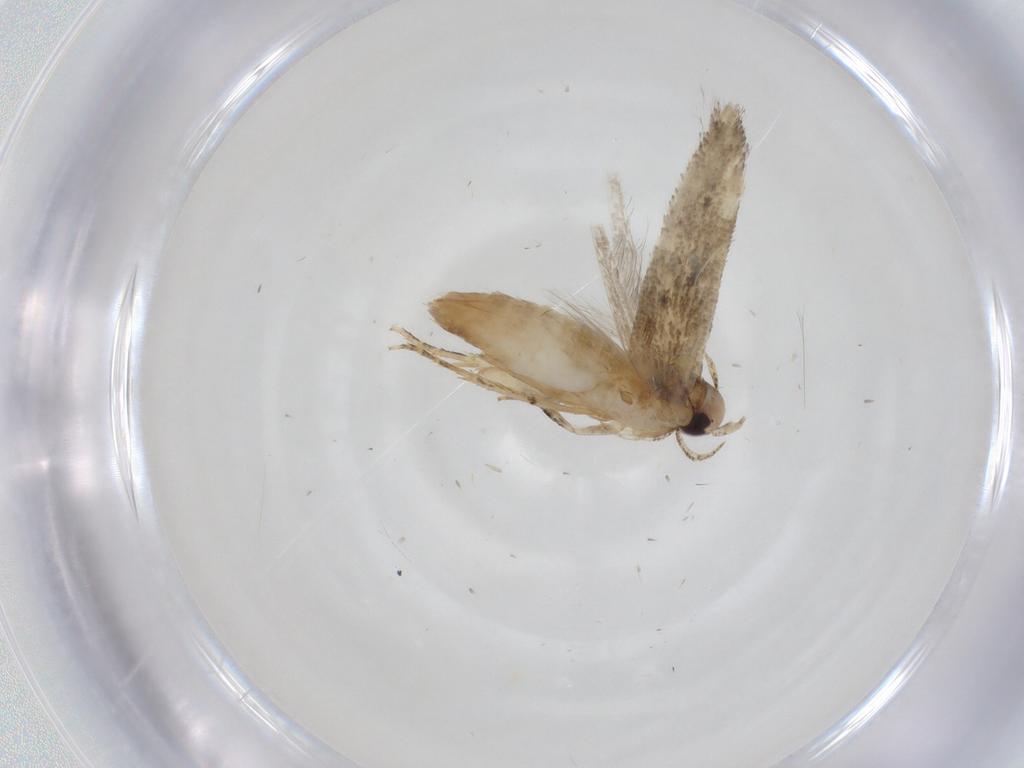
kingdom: Animalia
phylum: Arthropoda
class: Insecta
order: Lepidoptera
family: Gelechiidae
